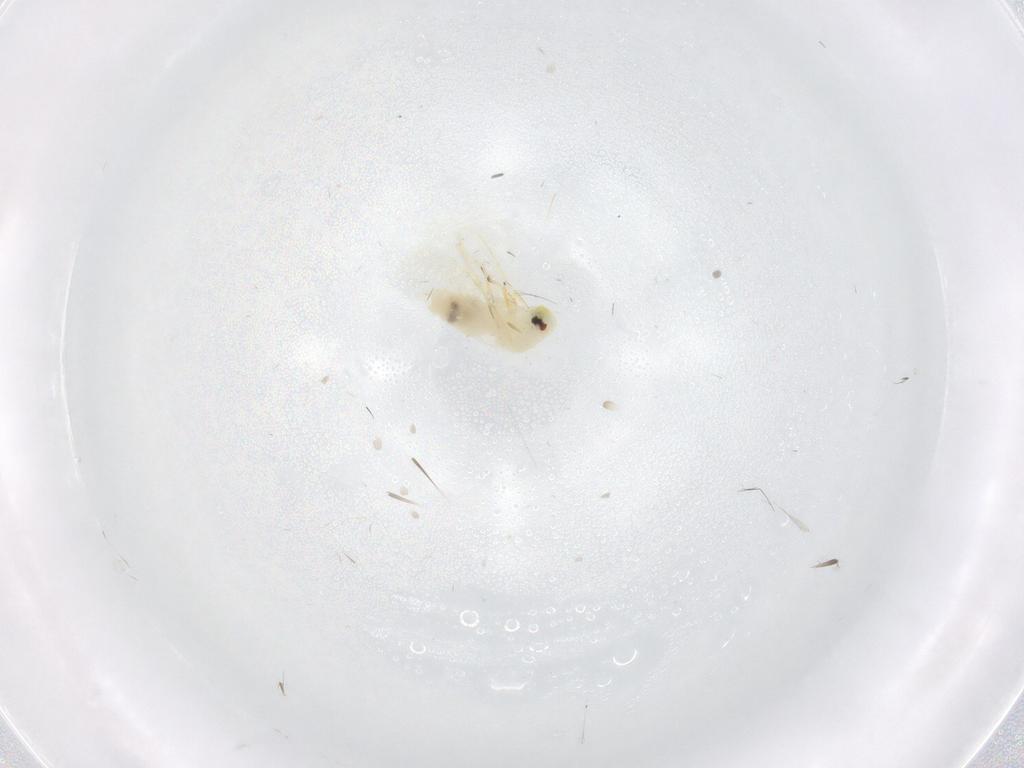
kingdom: Animalia
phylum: Arthropoda
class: Insecta
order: Hemiptera
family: Aleyrodidae
